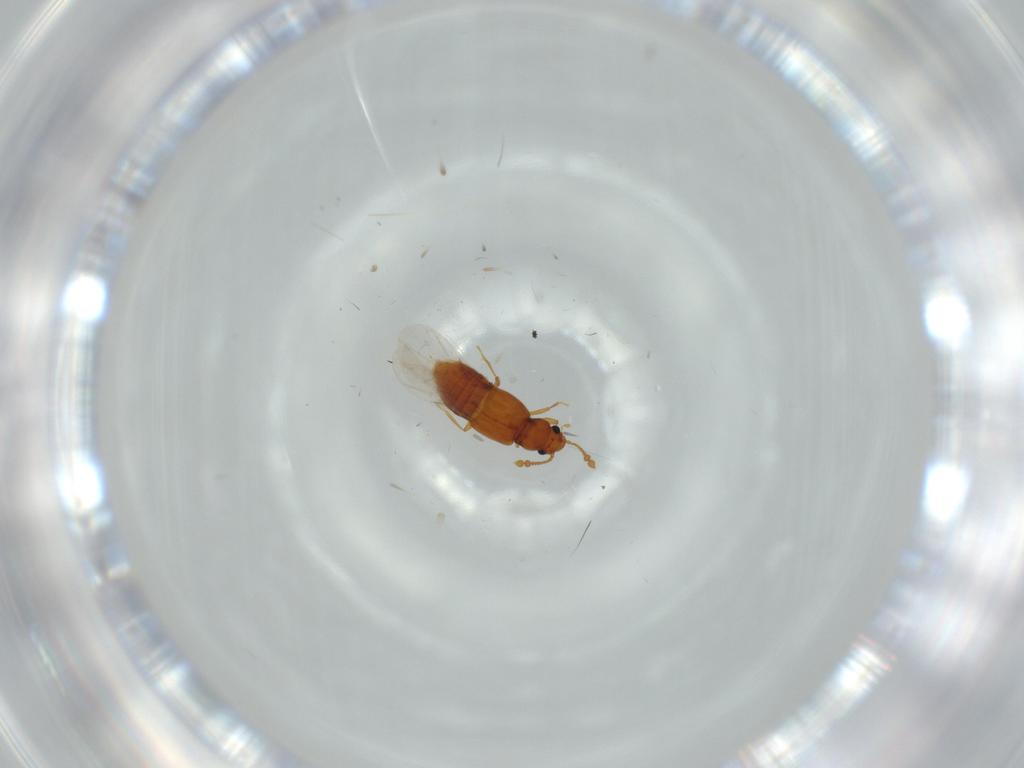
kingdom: Animalia
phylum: Arthropoda
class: Insecta
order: Coleoptera
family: Staphylinidae
